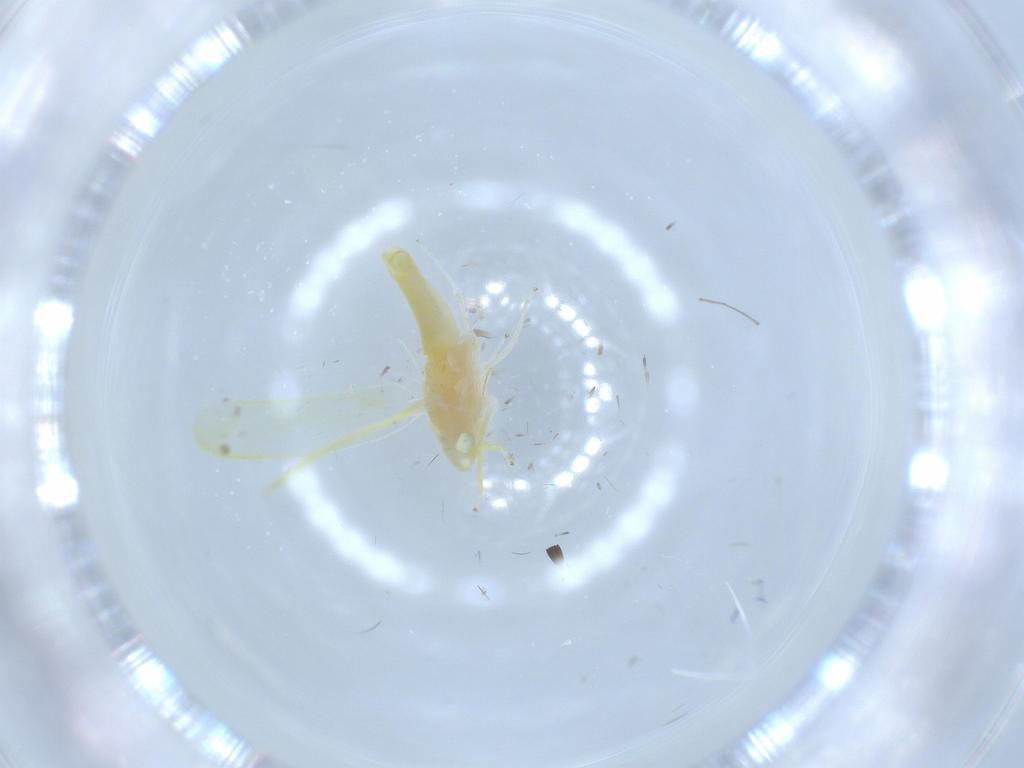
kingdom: Animalia
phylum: Arthropoda
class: Insecta
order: Hemiptera
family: Cicadellidae
